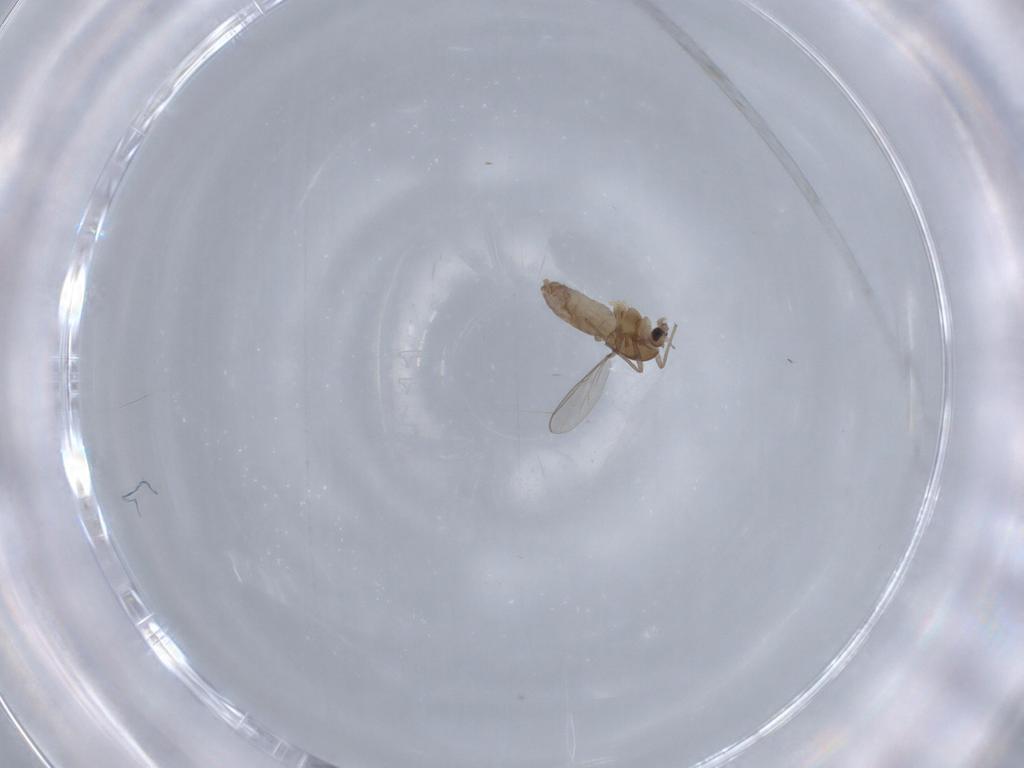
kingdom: Animalia
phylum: Arthropoda
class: Insecta
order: Diptera
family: Chironomidae
